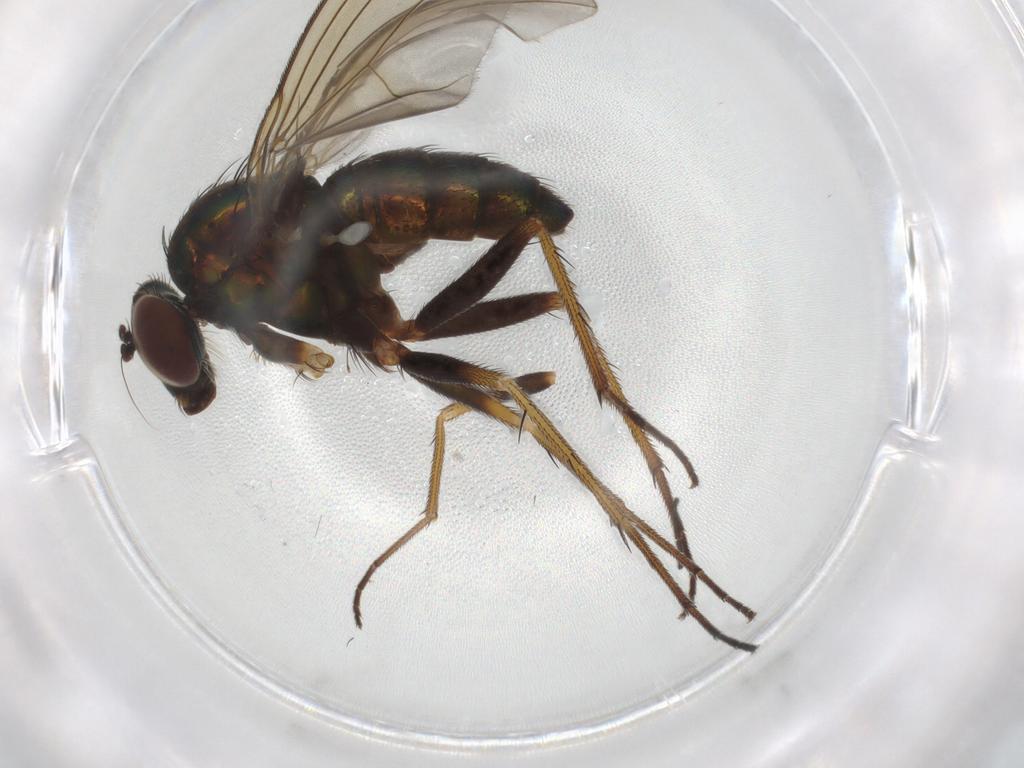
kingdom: Animalia
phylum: Arthropoda
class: Insecta
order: Diptera
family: Dolichopodidae
